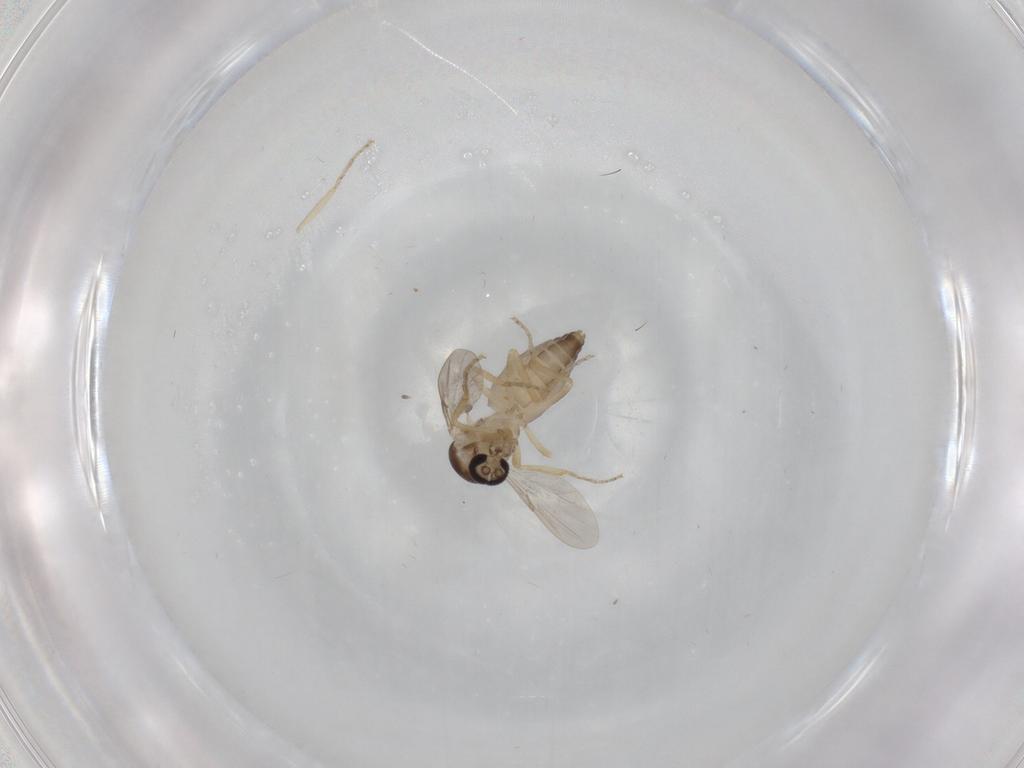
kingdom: Animalia
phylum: Arthropoda
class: Insecta
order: Diptera
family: Ceratopogonidae
